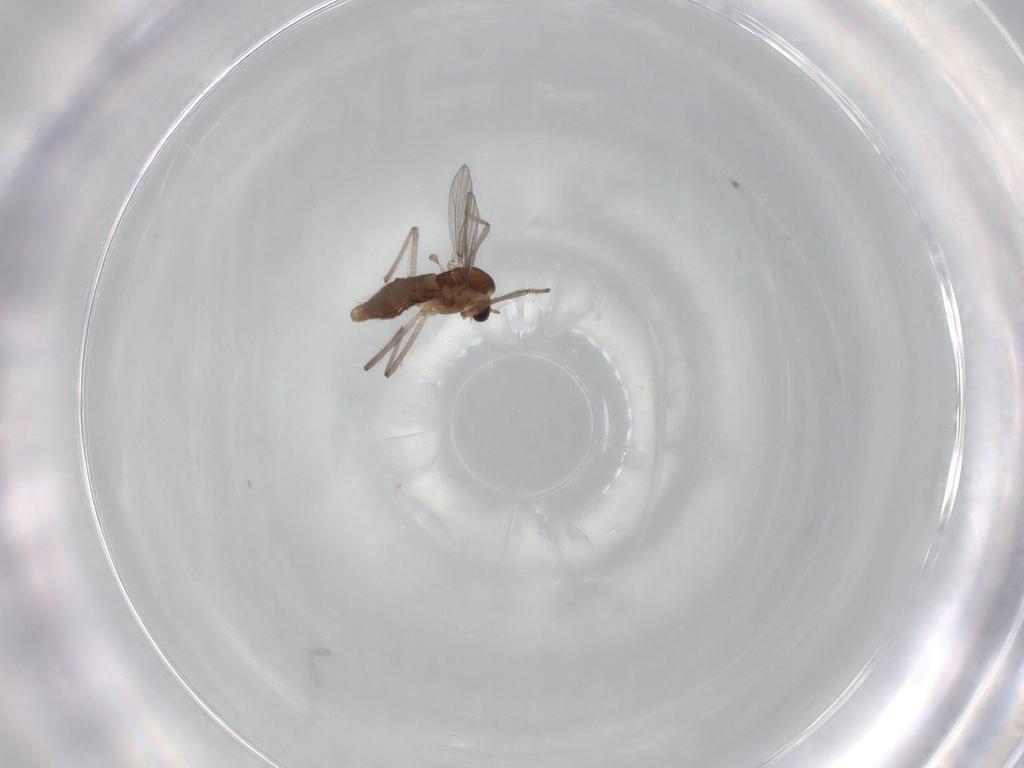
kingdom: Animalia
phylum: Arthropoda
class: Insecta
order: Diptera
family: Chironomidae
